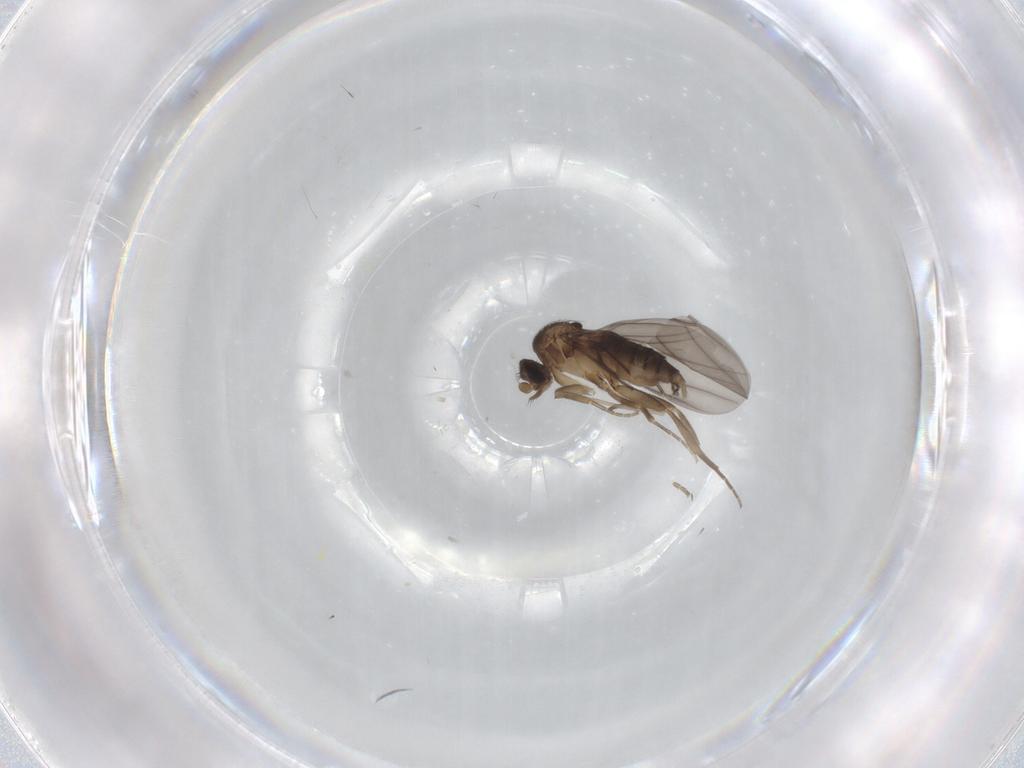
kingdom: Animalia
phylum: Arthropoda
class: Insecta
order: Diptera
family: Phoridae
